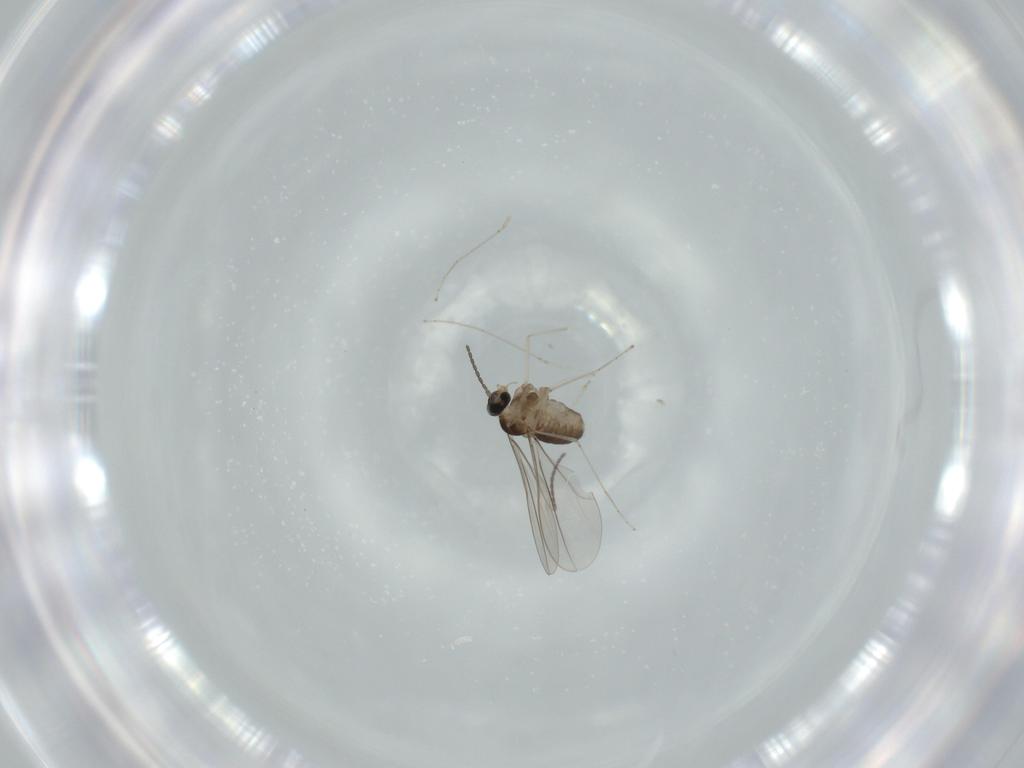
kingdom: Animalia
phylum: Arthropoda
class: Insecta
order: Diptera
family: Cecidomyiidae
